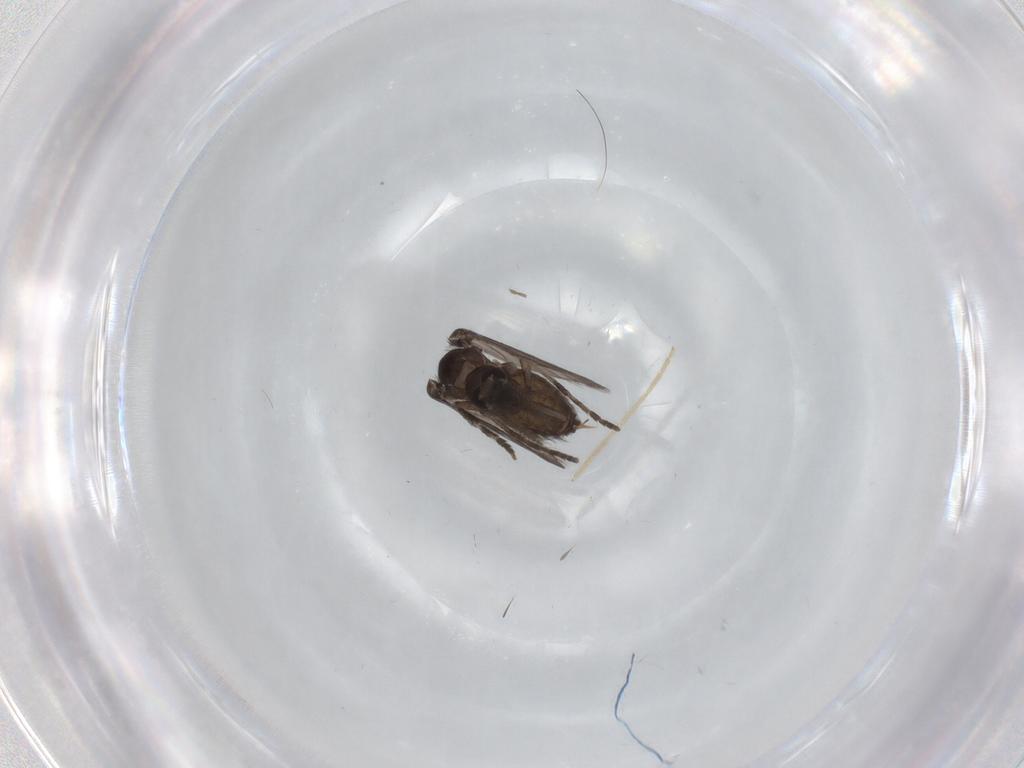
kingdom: Animalia
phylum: Arthropoda
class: Insecta
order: Diptera
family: Psychodidae
